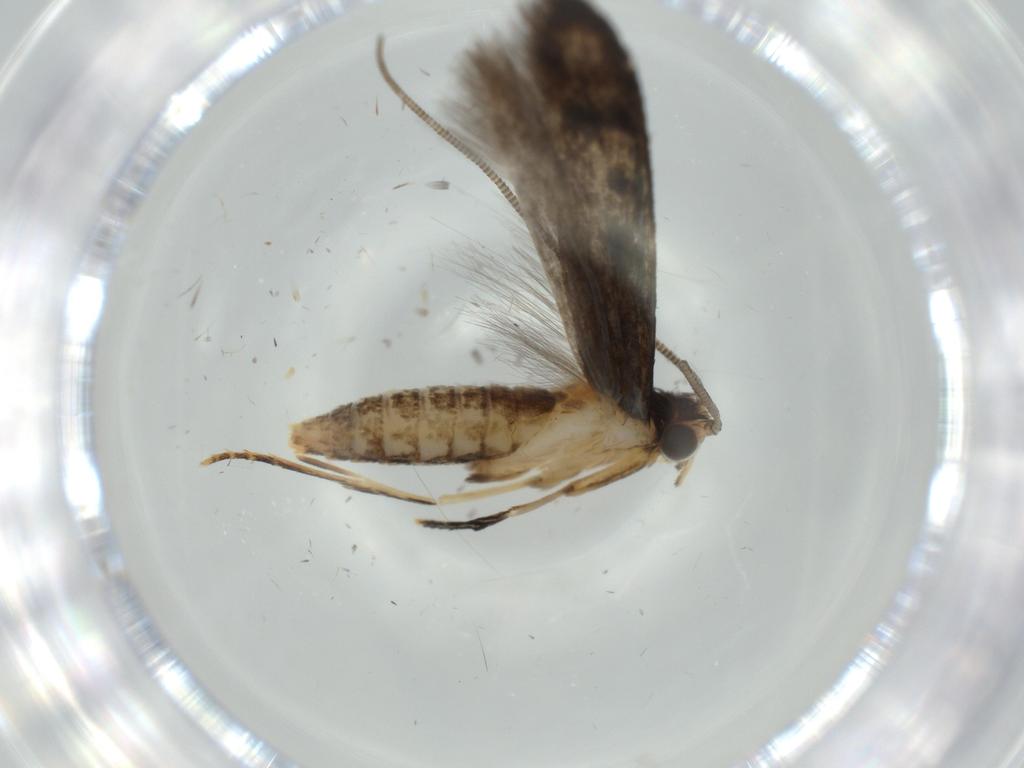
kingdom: Animalia
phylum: Arthropoda
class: Insecta
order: Lepidoptera
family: Tineidae
